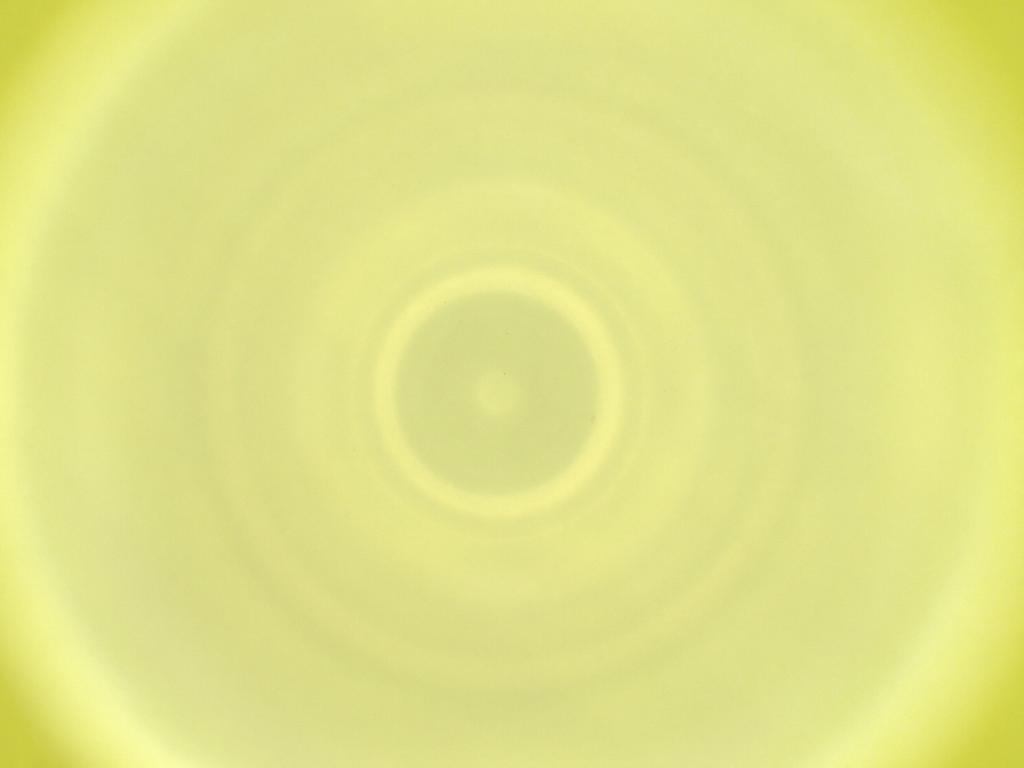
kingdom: Animalia
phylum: Arthropoda
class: Insecta
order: Diptera
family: Cecidomyiidae
